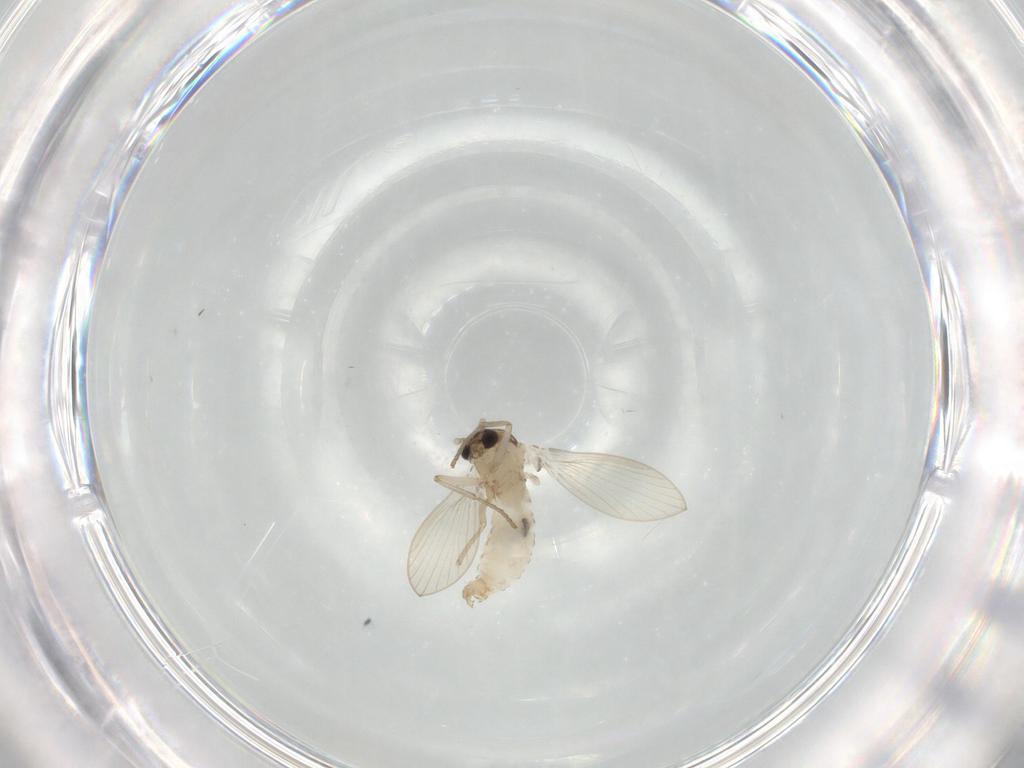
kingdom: Animalia
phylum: Arthropoda
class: Insecta
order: Diptera
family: Psychodidae
